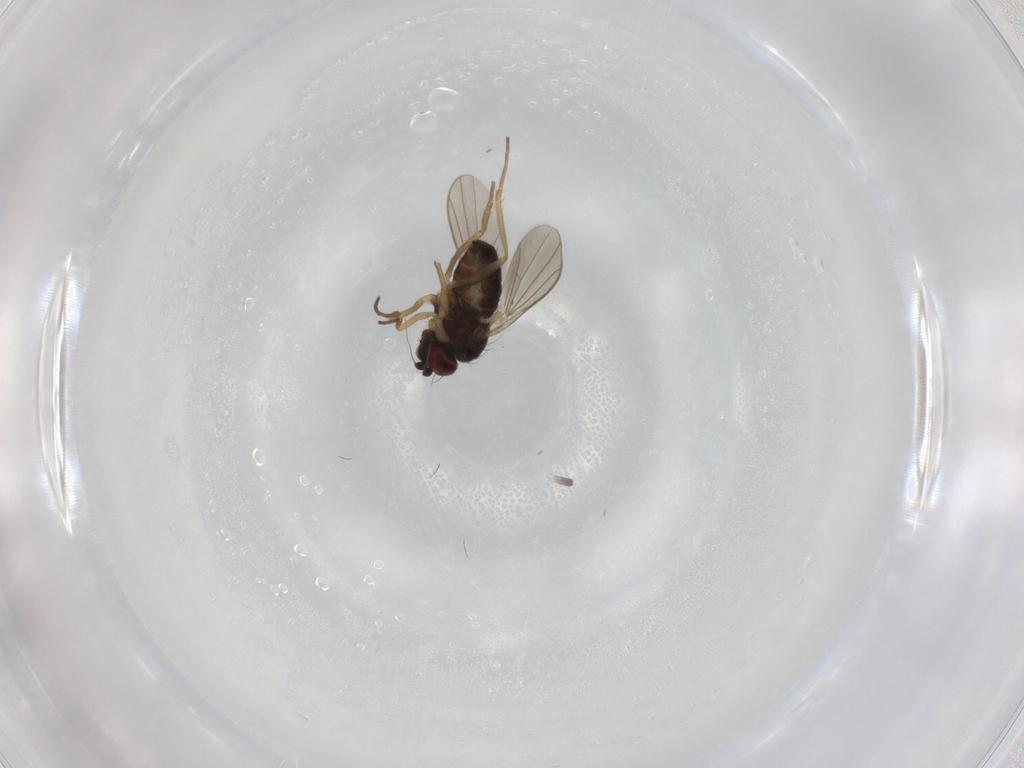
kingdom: Animalia
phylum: Arthropoda
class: Insecta
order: Diptera
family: Dolichopodidae
